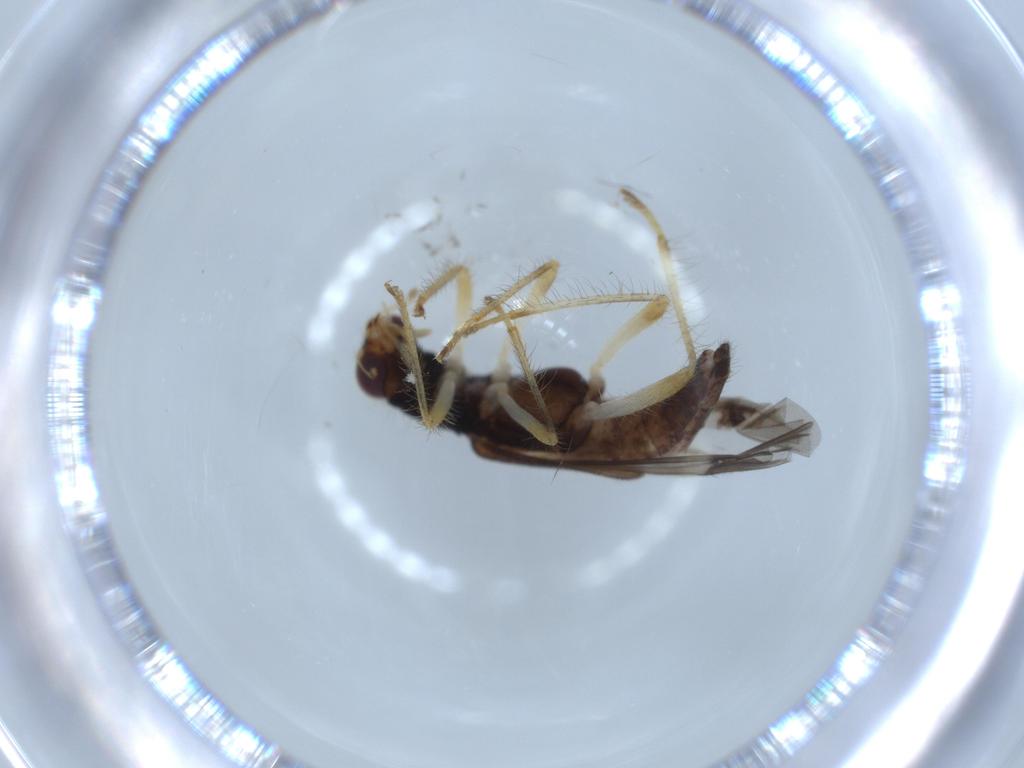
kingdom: Animalia
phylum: Arthropoda
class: Insecta
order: Coleoptera
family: Cleridae
